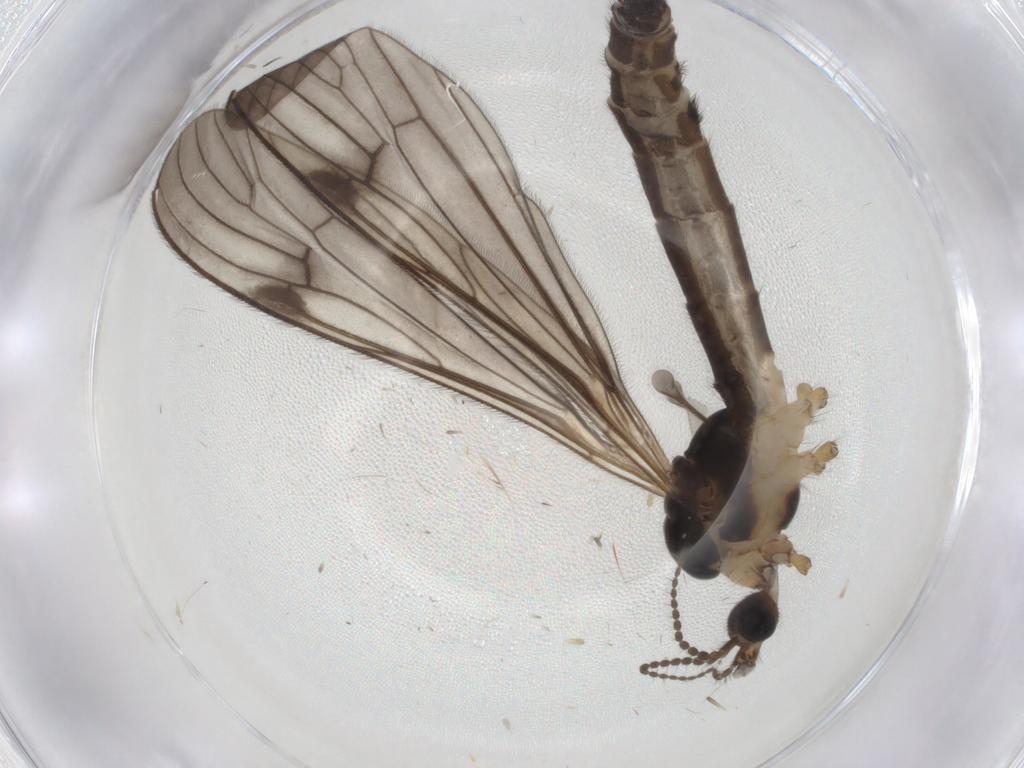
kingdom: Animalia
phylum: Arthropoda
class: Insecta
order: Diptera
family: Limoniidae
